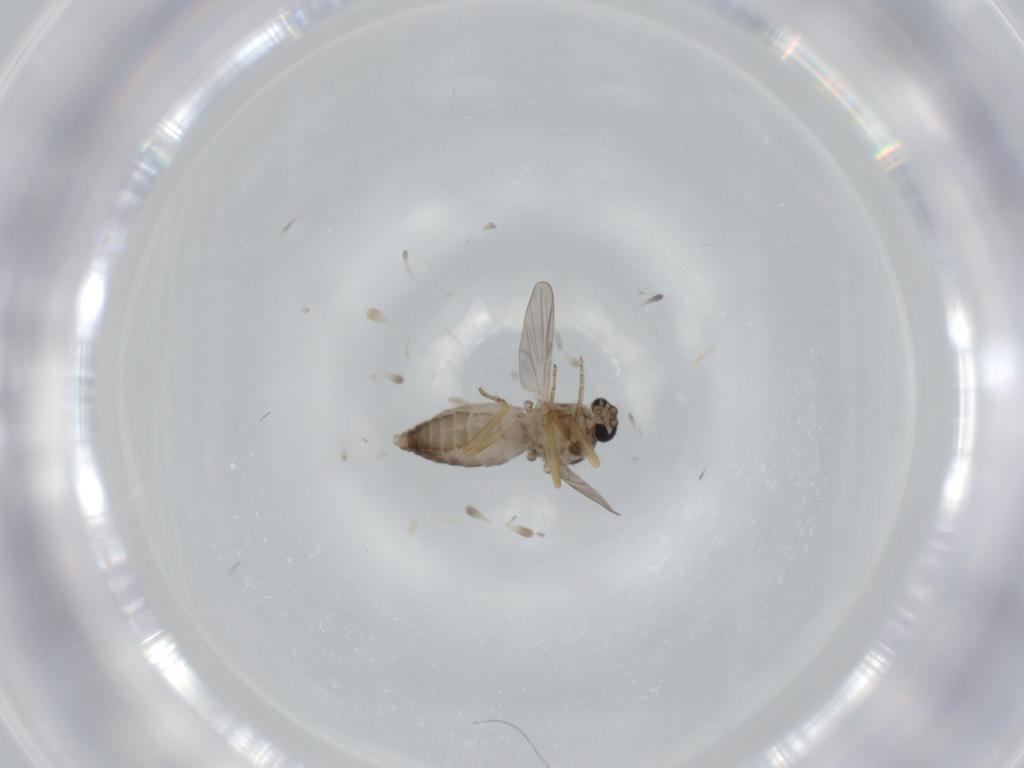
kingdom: Animalia
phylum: Arthropoda
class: Insecta
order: Diptera
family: Ceratopogonidae
